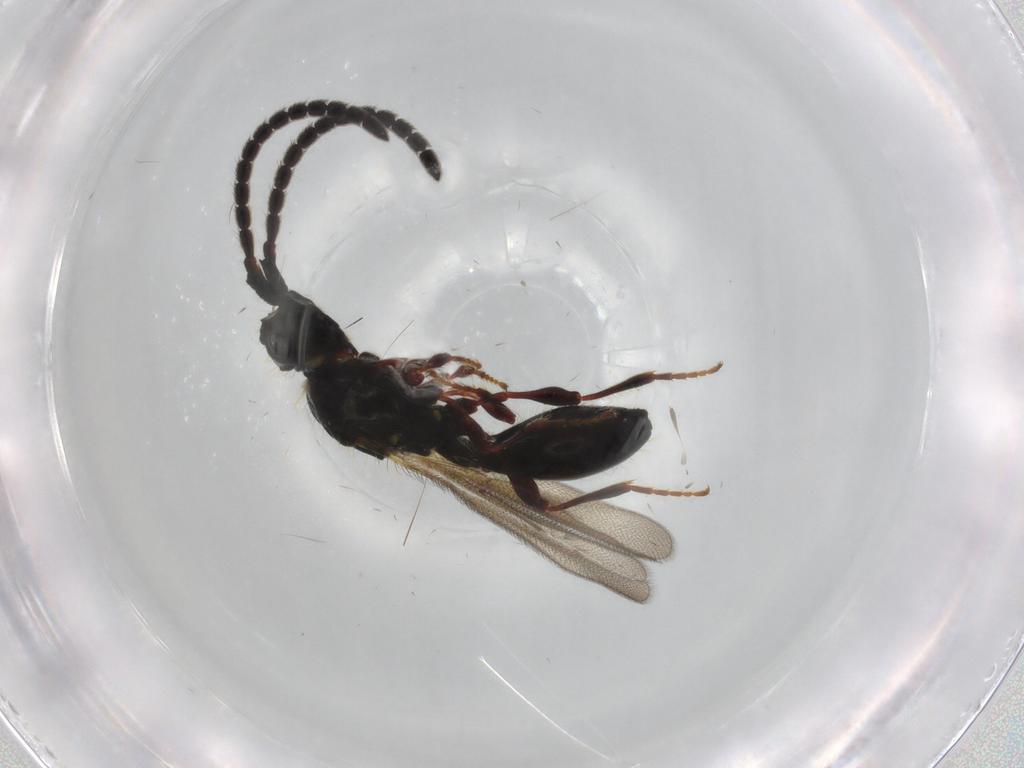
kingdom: Animalia
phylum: Arthropoda
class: Insecta
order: Hymenoptera
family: Diapriidae
